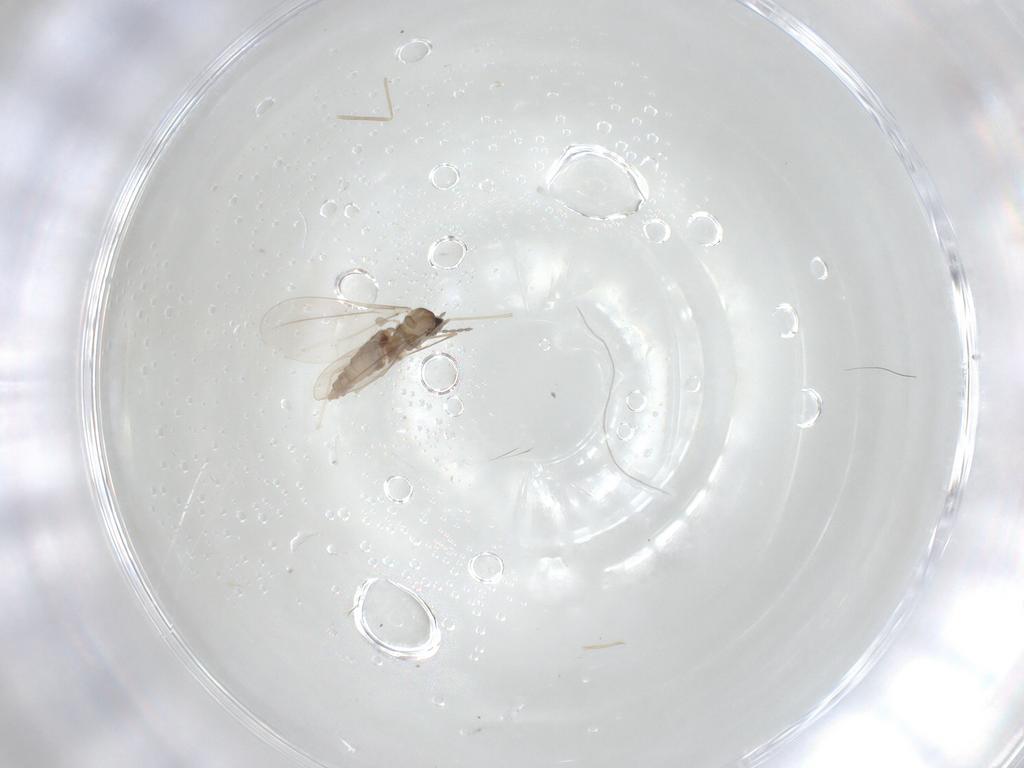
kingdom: Animalia
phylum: Arthropoda
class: Insecta
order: Diptera
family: Cecidomyiidae
